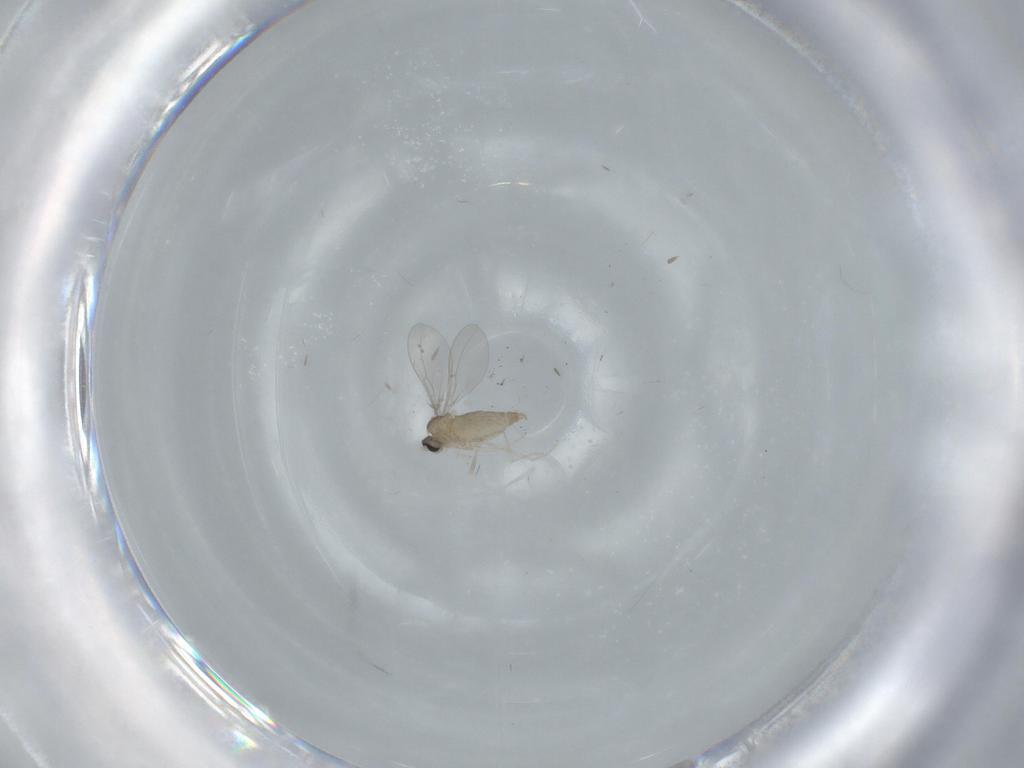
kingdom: Animalia
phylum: Arthropoda
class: Insecta
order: Diptera
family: Phoridae
